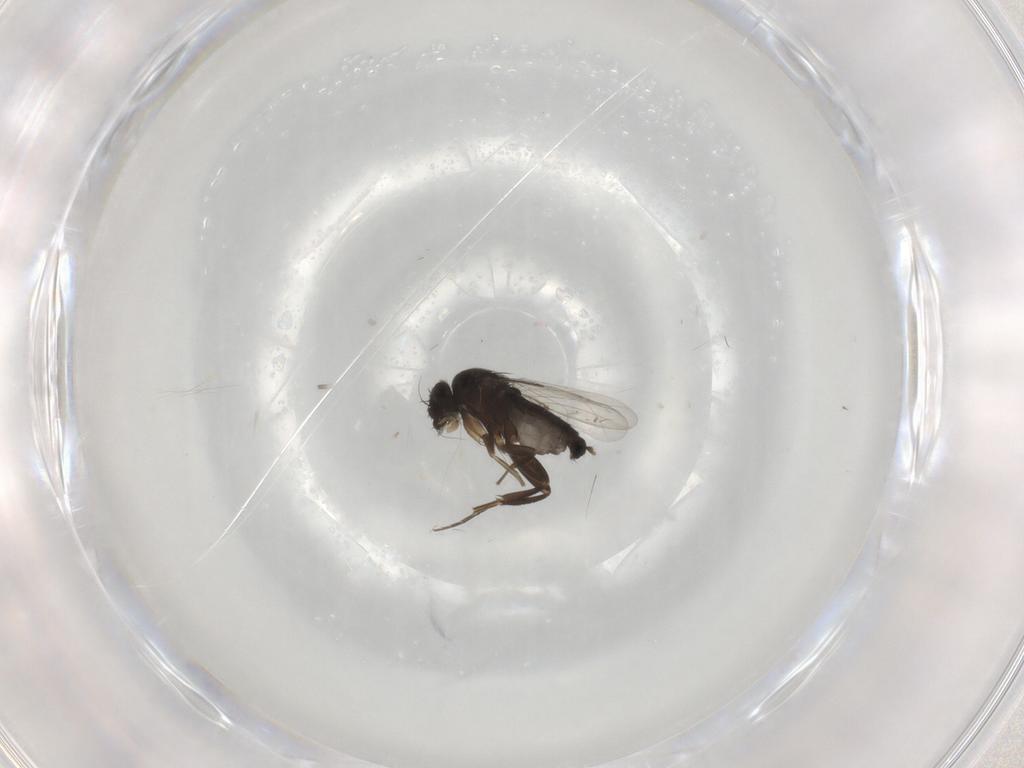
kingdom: Animalia
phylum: Arthropoda
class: Insecta
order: Diptera
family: Phoridae
